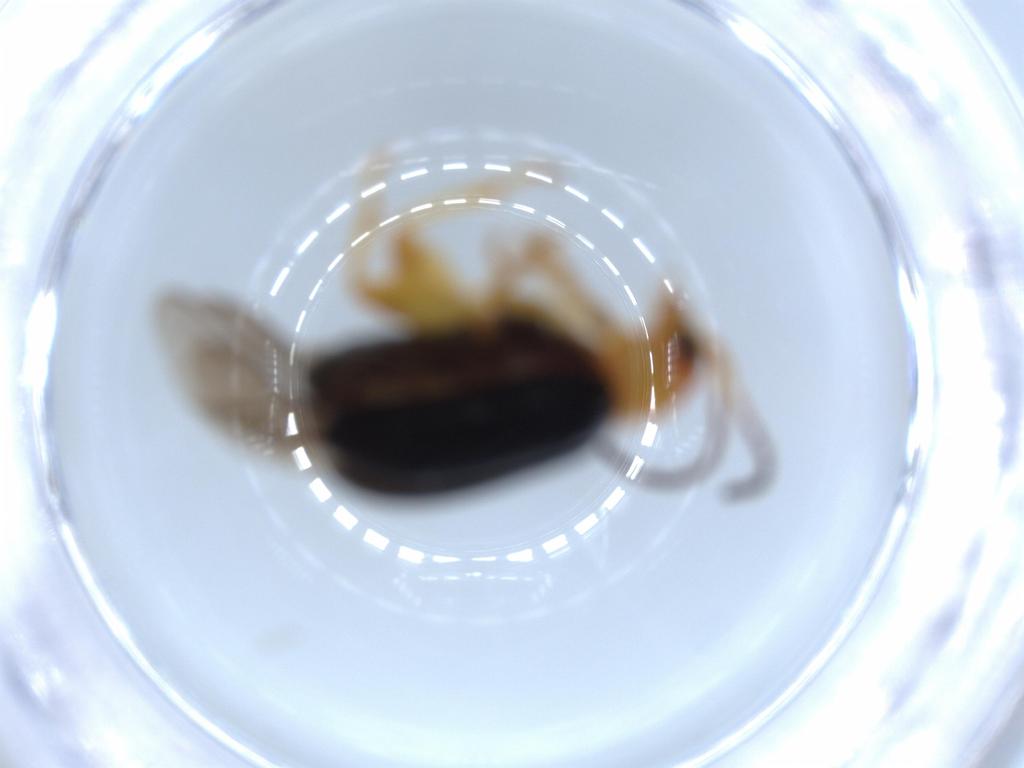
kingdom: Animalia
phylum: Arthropoda
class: Insecta
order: Coleoptera
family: Chrysomelidae
